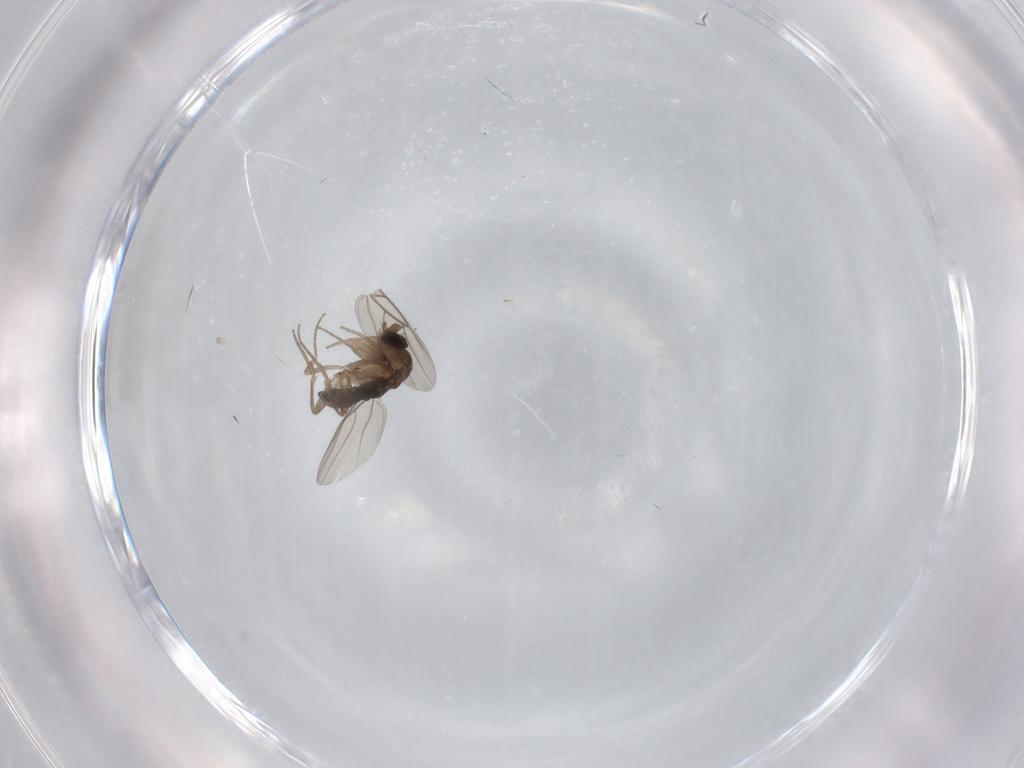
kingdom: Animalia
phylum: Arthropoda
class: Insecta
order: Diptera
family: Phoridae
